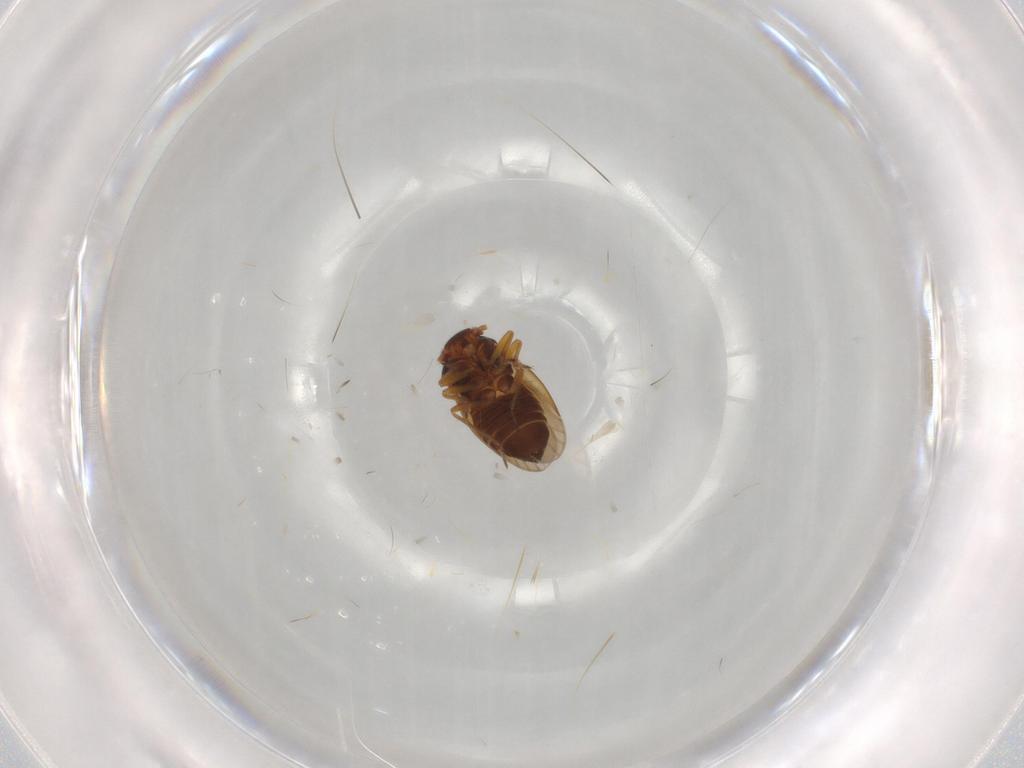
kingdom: Animalia
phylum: Arthropoda
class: Insecta
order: Hemiptera
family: Schizopteridae
